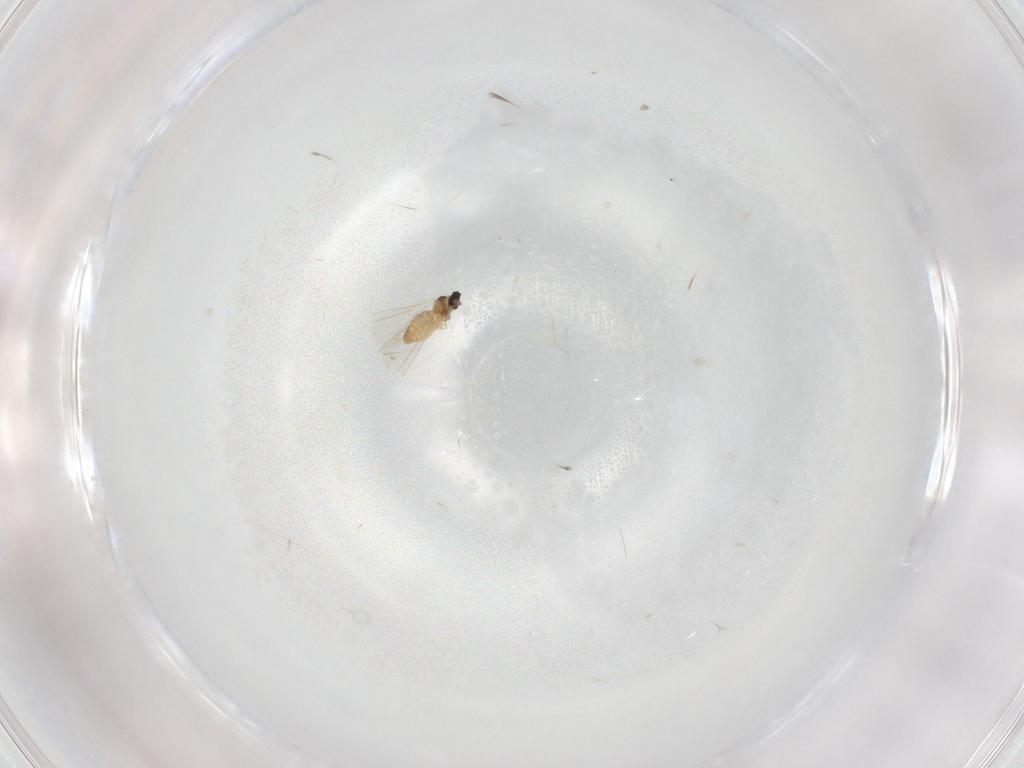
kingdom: Animalia
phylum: Arthropoda
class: Insecta
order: Diptera
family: Cecidomyiidae
